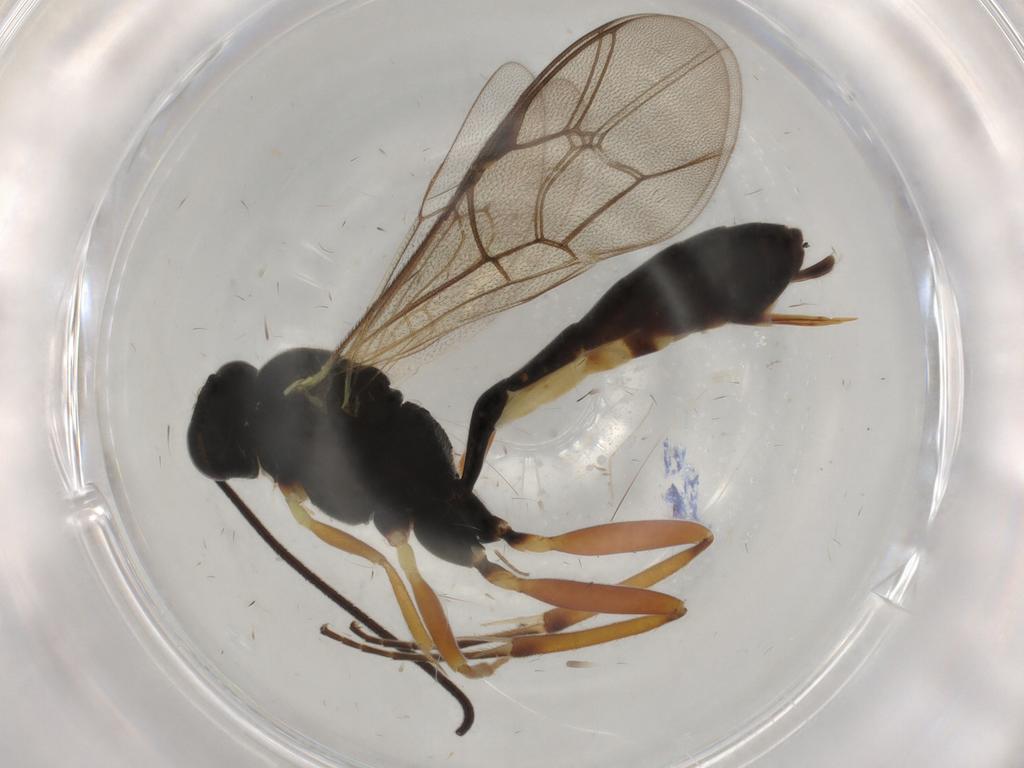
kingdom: Animalia
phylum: Arthropoda
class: Insecta
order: Hymenoptera
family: Ichneumonidae
